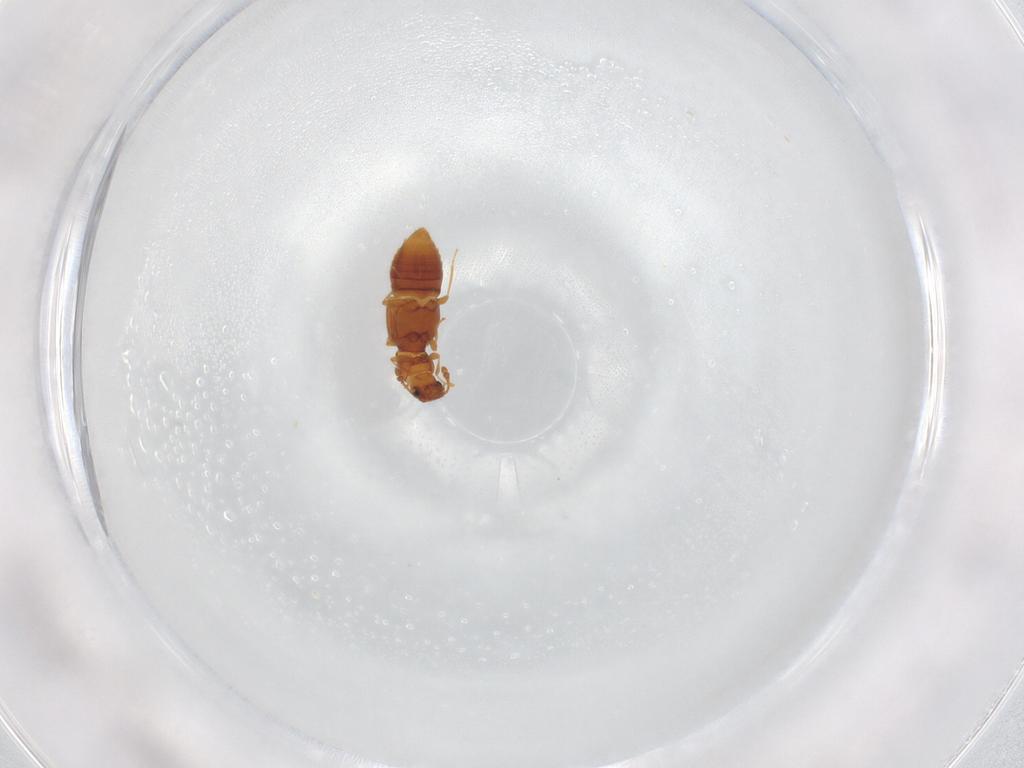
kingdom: Animalia
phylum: Arthropoda
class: Insecta
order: Coleoptera
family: Staphylinidae
